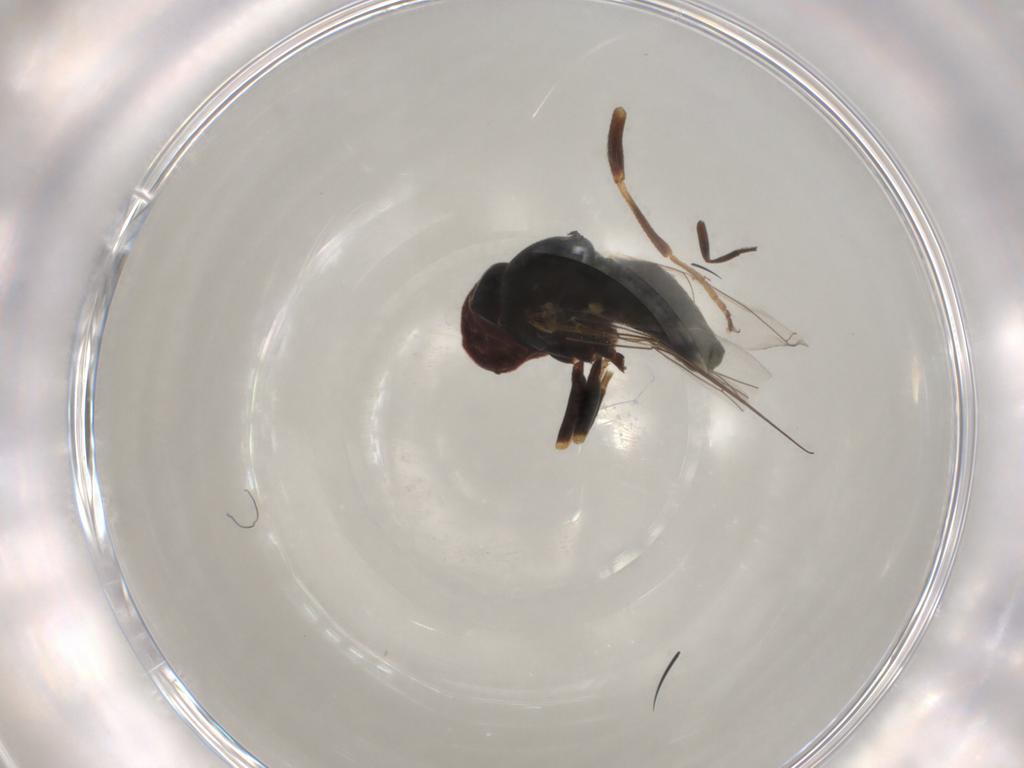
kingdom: Animalia
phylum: Arthropoda
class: Insecta
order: Diptera
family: Pipunculidae
